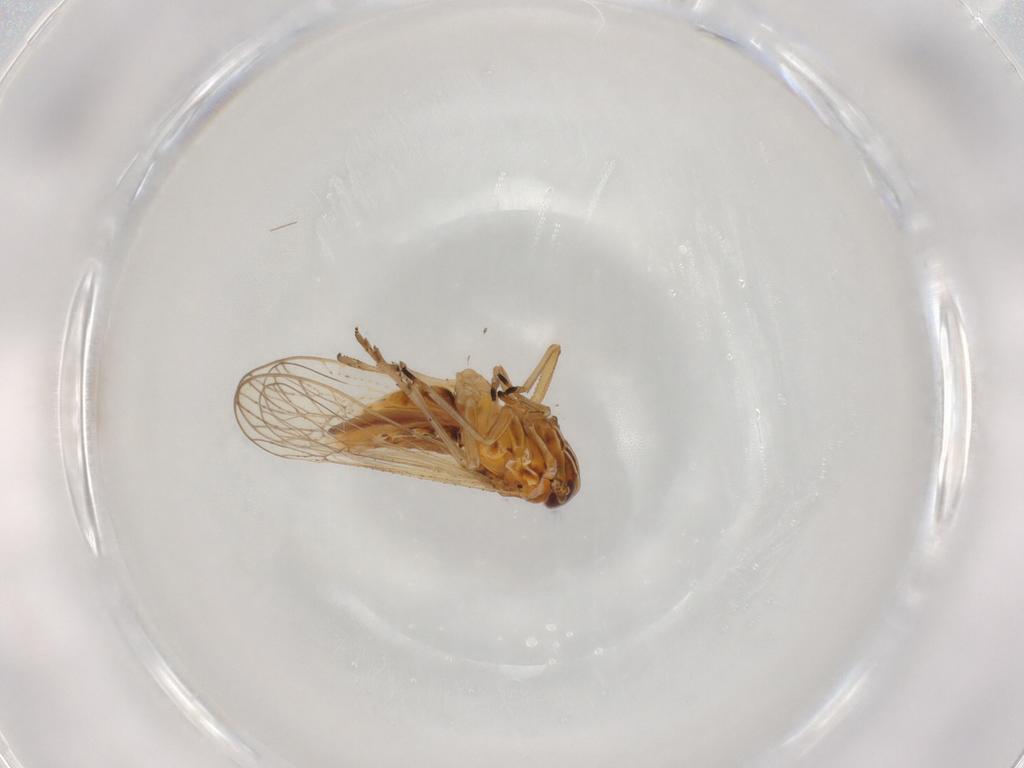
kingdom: Animalia
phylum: Arthropoda
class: Insecta
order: Hemiptera
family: Delphacidae
